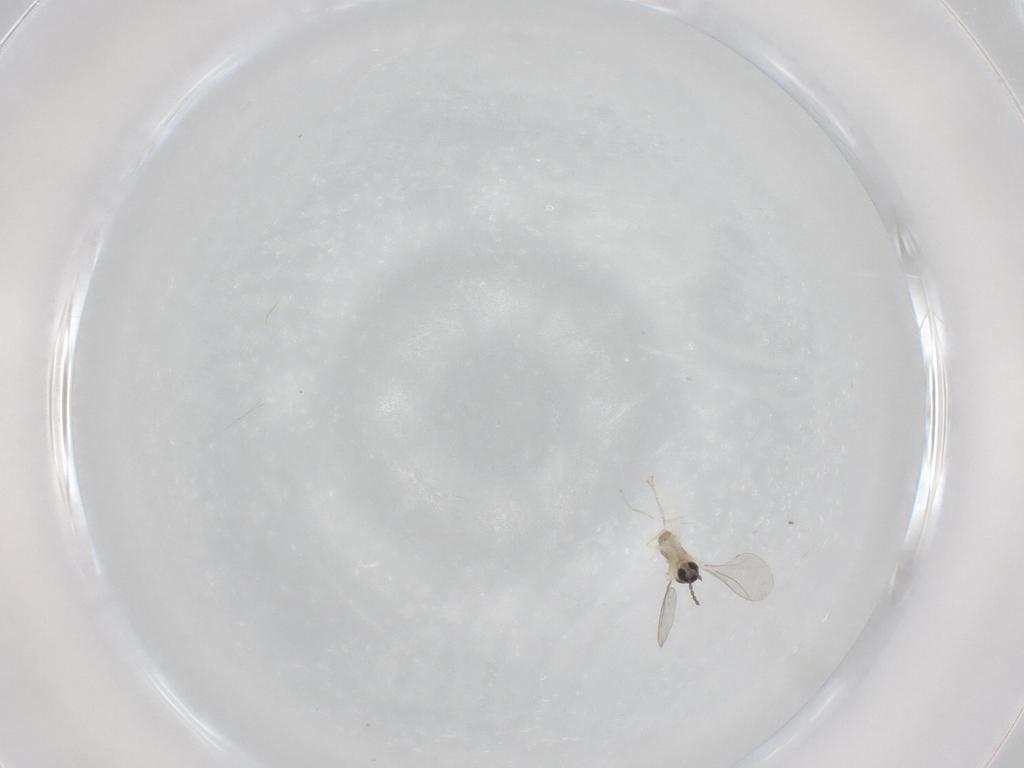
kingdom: Animalia
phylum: Arthropoda
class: Insecta
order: Diptera
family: Cecidomyiidae
